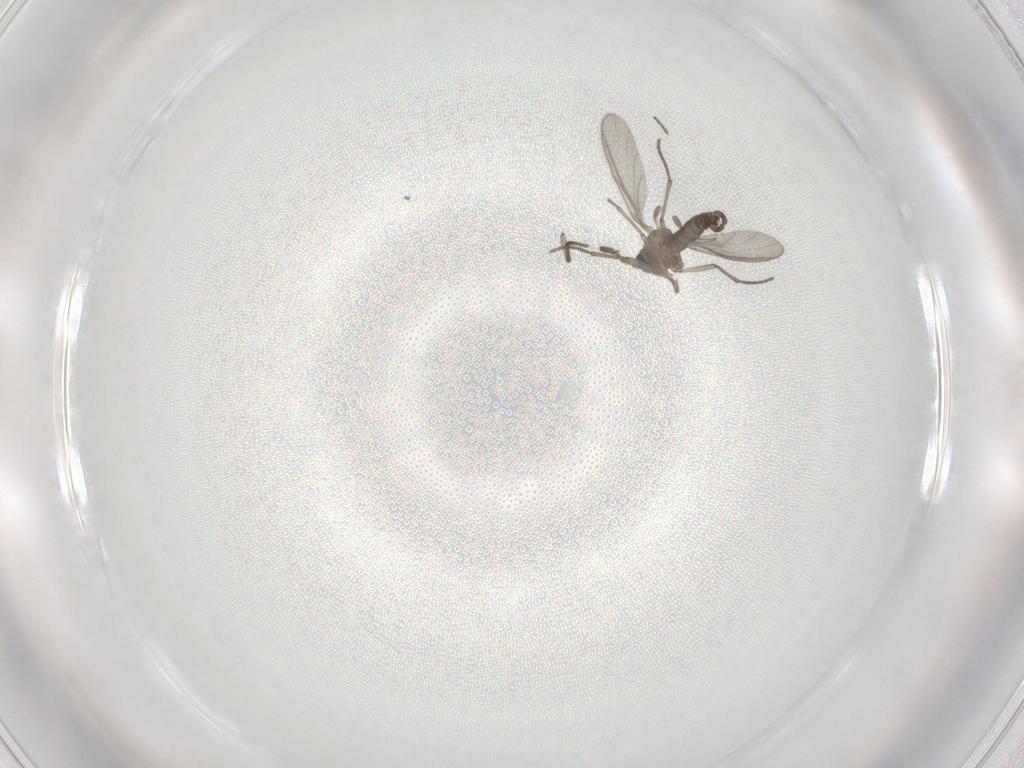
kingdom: Animalia
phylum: Arthropoda
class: Insecta
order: Diptera
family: Sciaridae
